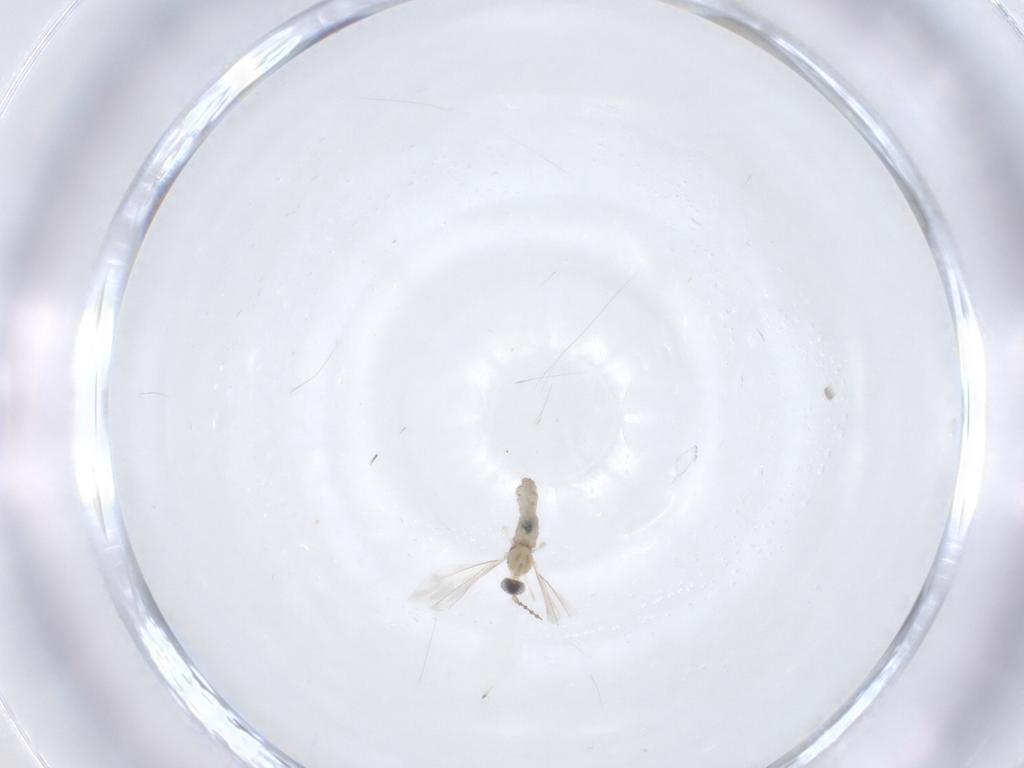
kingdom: Animalia
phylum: Arthropoda
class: Insecta
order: Diptera
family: Cecidomyiidae
